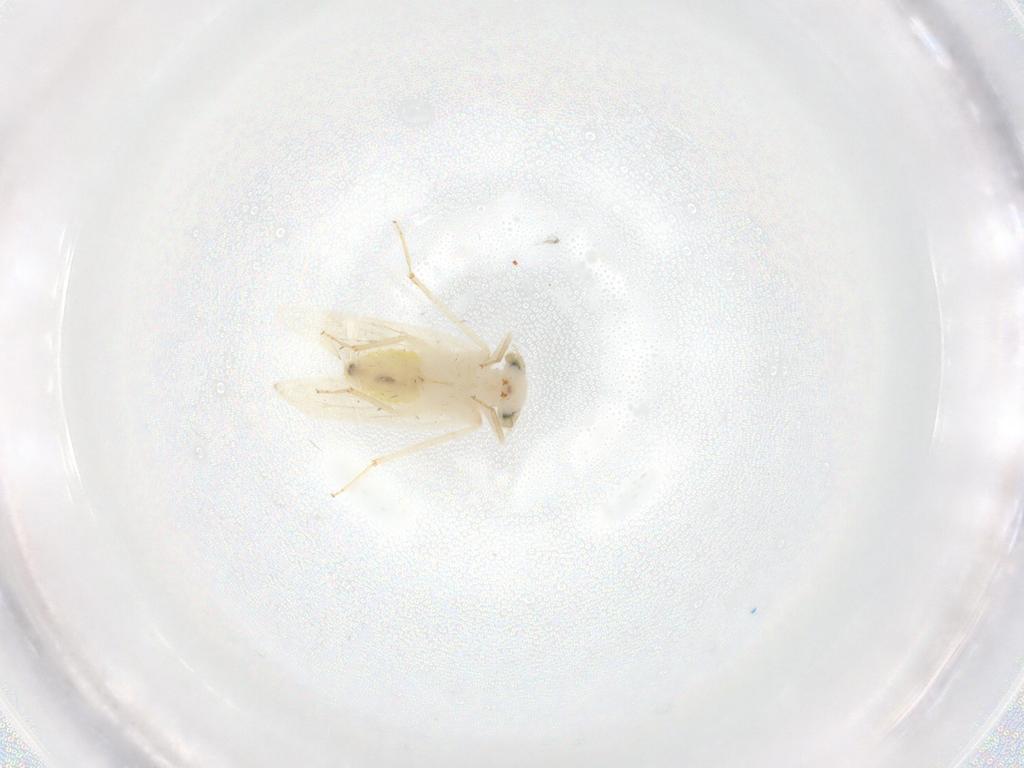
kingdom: Animalia
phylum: Arthropoda
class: Insecta
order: Psocodea
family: Lepidopsocidae
